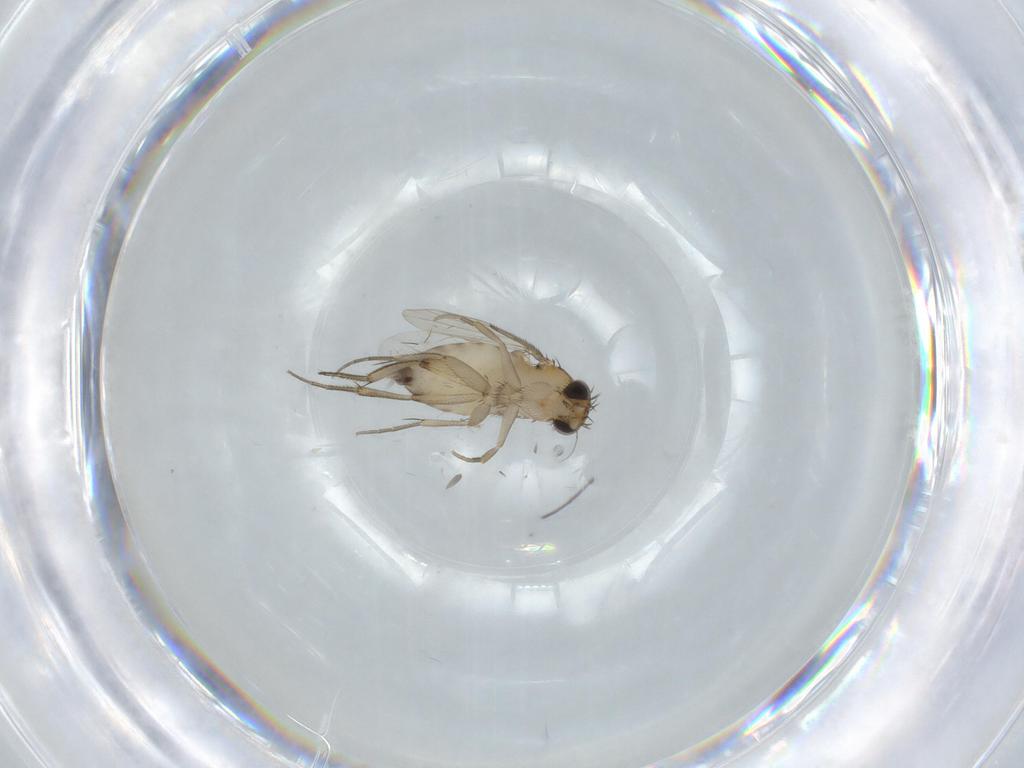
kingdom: Animalia
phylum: Arthropoda
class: Insecta
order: Diptera
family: Phoridae
